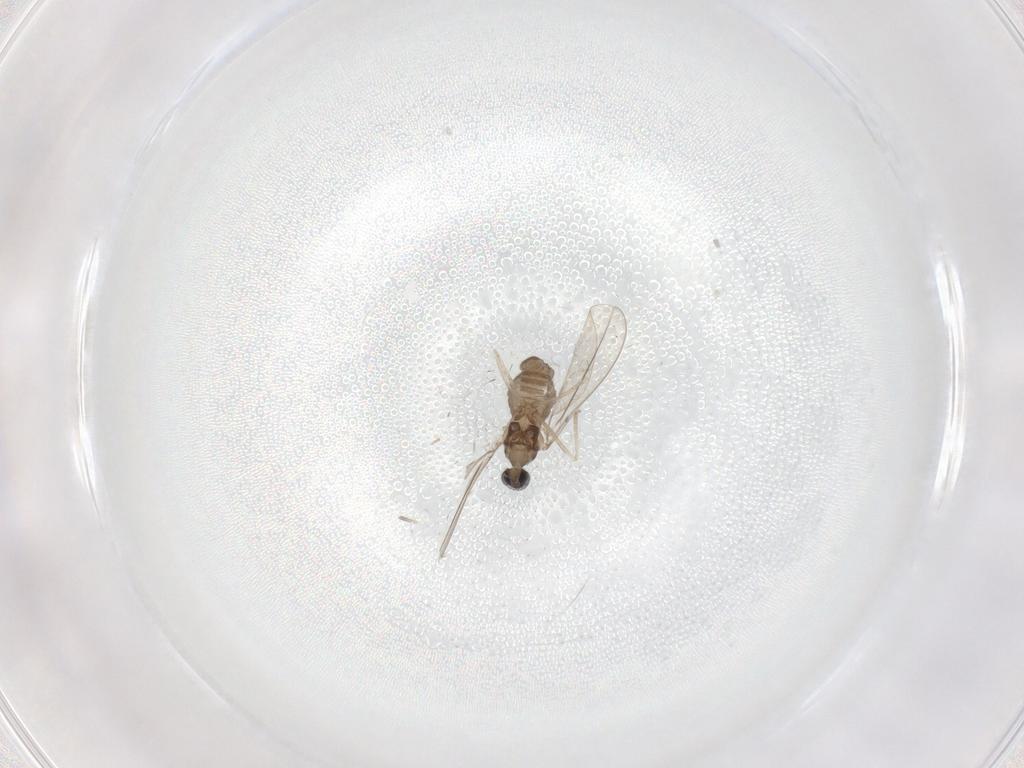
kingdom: Animalia
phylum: Arthropoda
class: Insecta
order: Diptera
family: Cecidomyiidae
